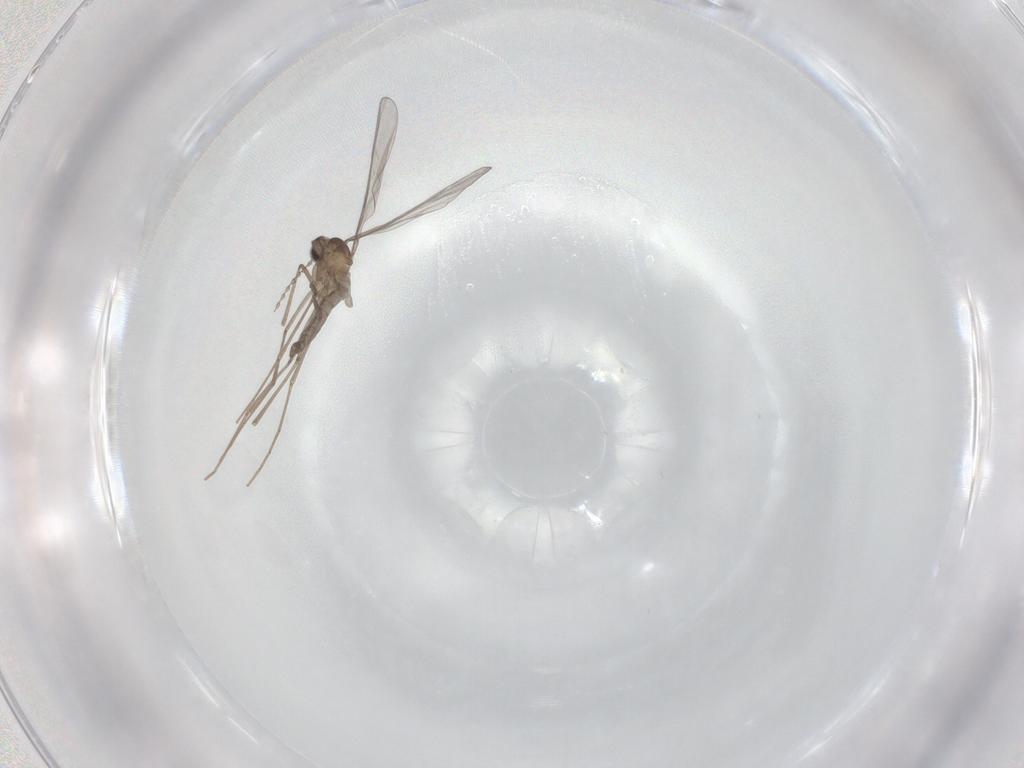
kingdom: Animalia
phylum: Arthropoda
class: Insecta
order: Diptera
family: Cecidomyiidae
